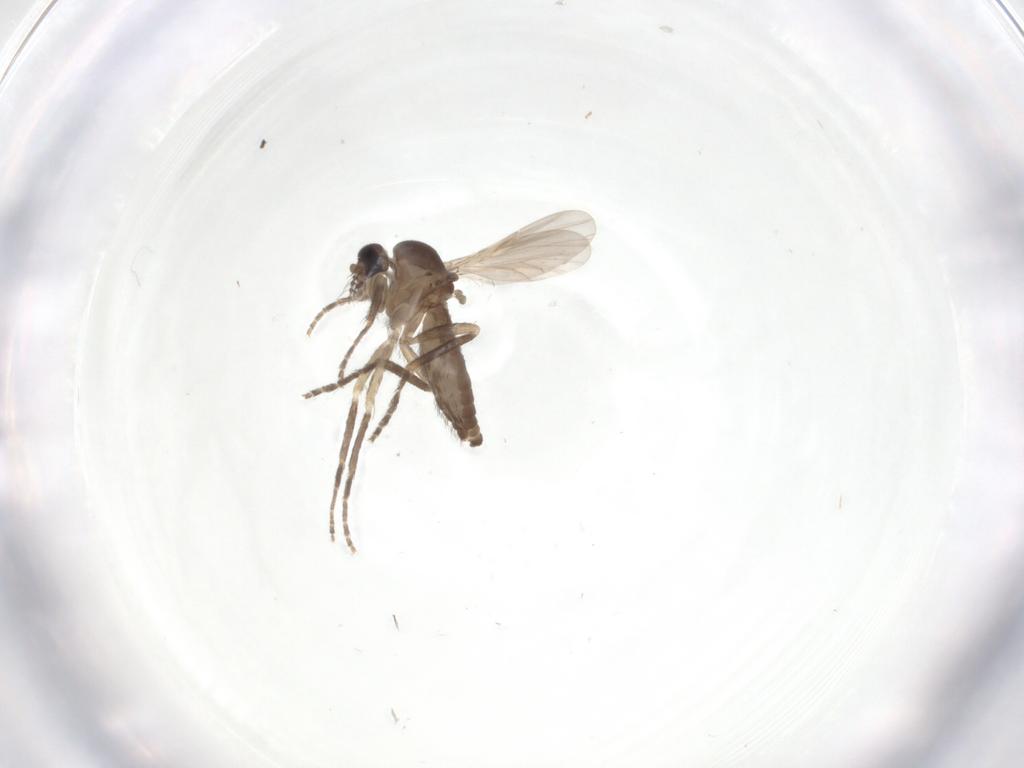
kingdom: Animalia
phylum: Arthropoda
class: Insecta
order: Diptera
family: Ceratopogonidae
